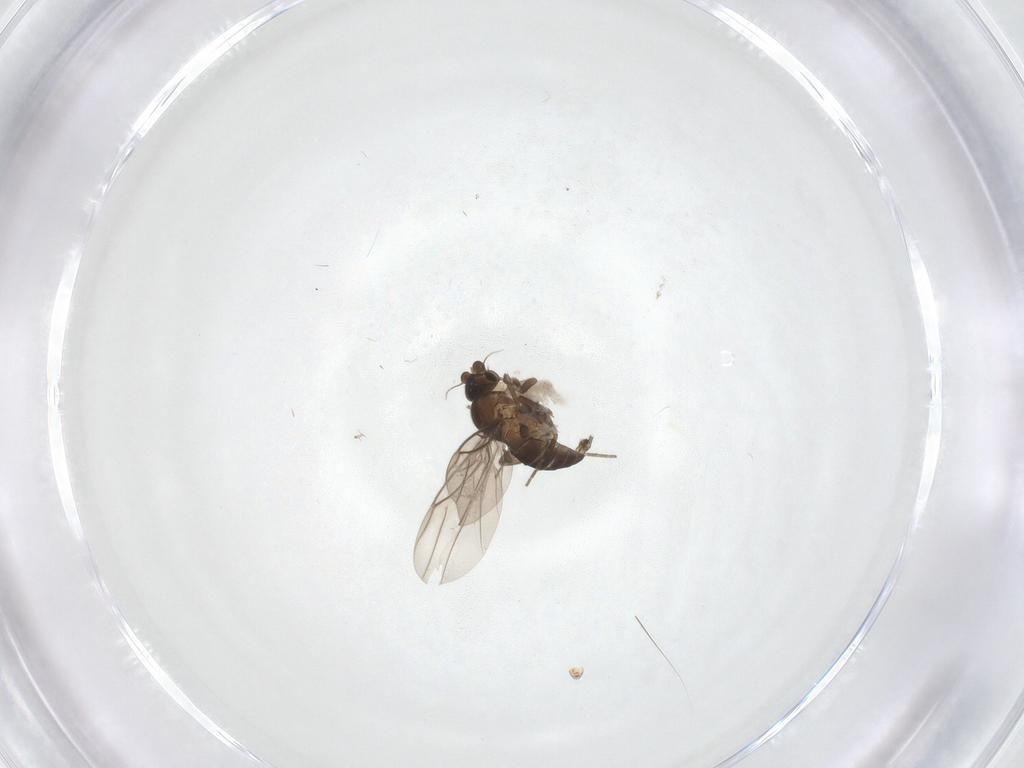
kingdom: Animalia
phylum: Arthropoda
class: Insecta
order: Diptera
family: Phoridae
